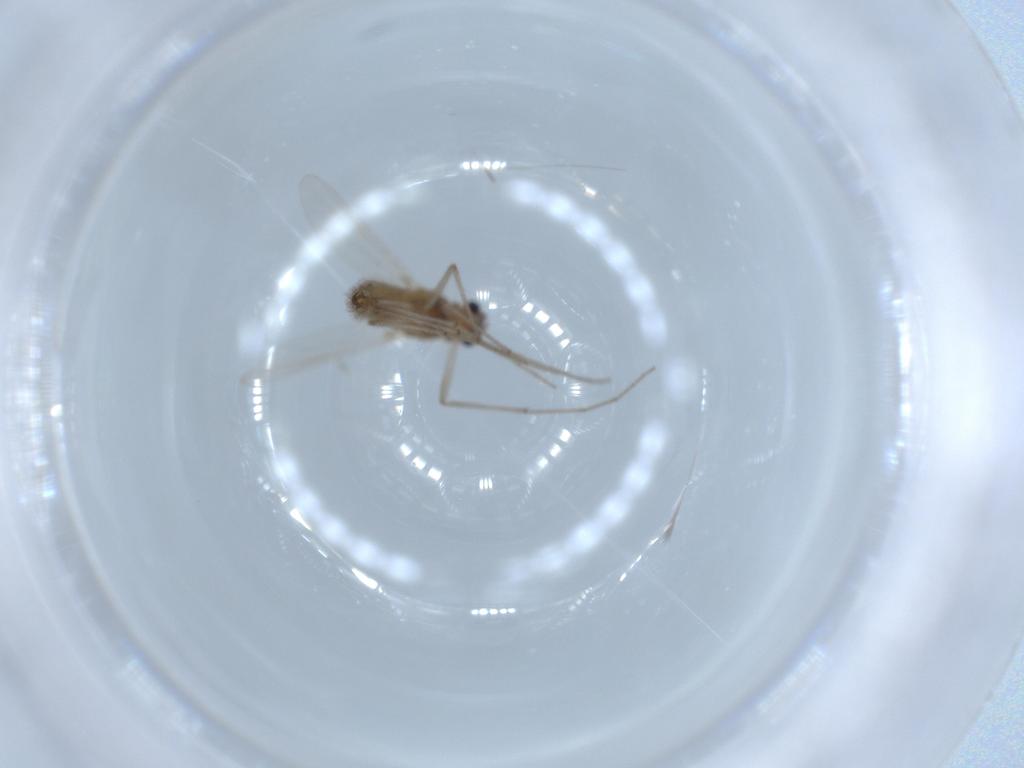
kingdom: Animalia
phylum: Arthropoda
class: Insecta
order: Diptera
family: Chironomidae
